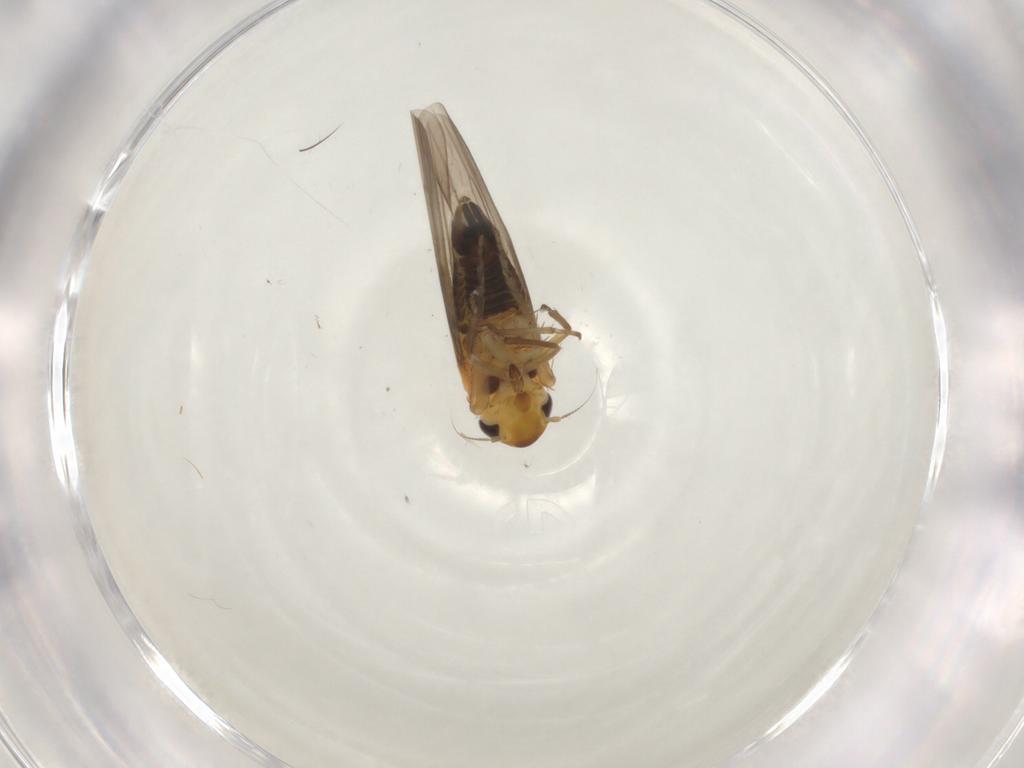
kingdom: Animalia
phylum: Arthropoda
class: Insecta
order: Hemiptera
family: Cicadellidae
